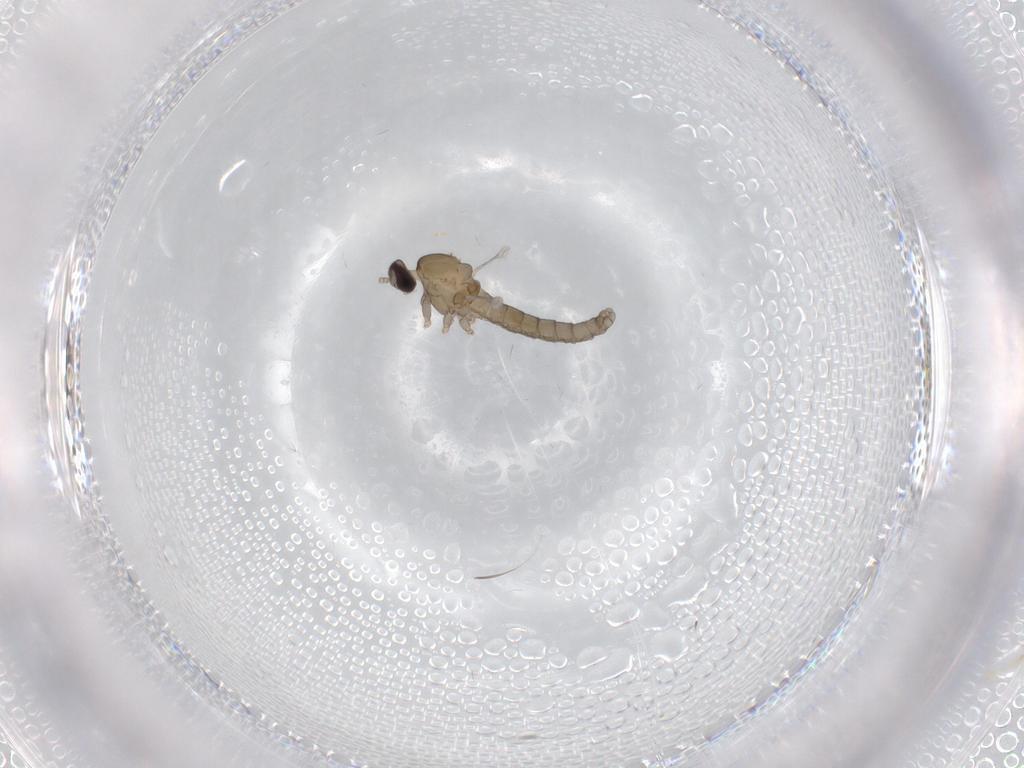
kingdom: Animalia
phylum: Arthropoda
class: Insecta
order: Diptera
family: Cecidomyiidae
